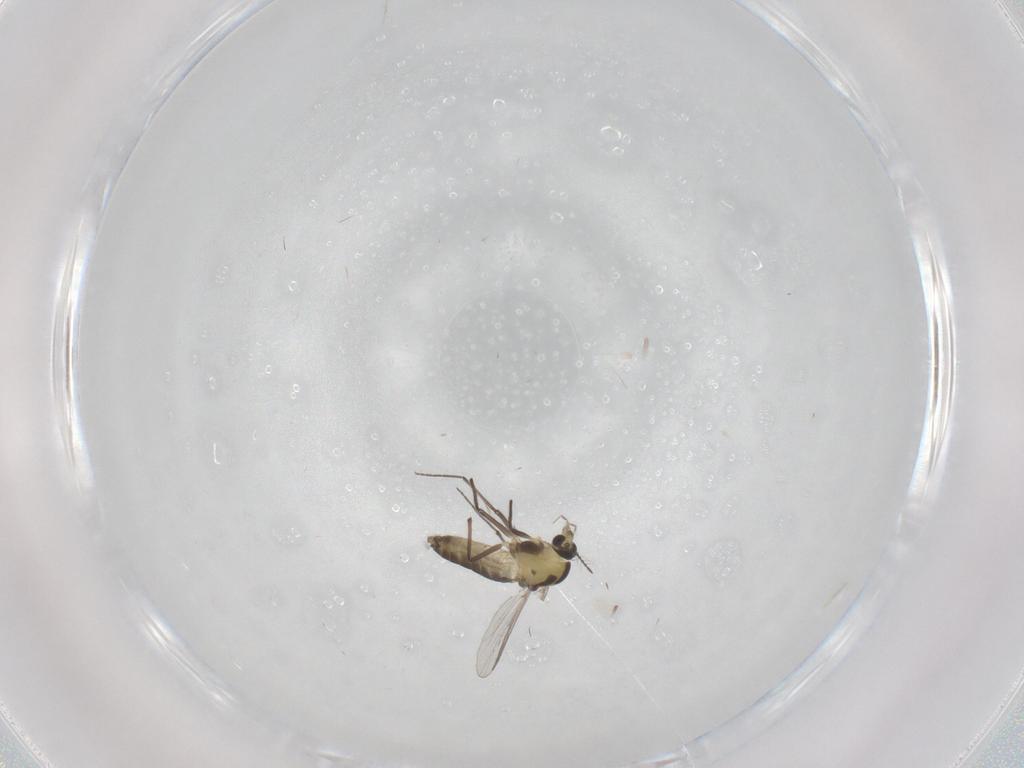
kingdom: Animalia
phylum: Arthropoda
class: Insecta
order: Diptera
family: Chironomidae
